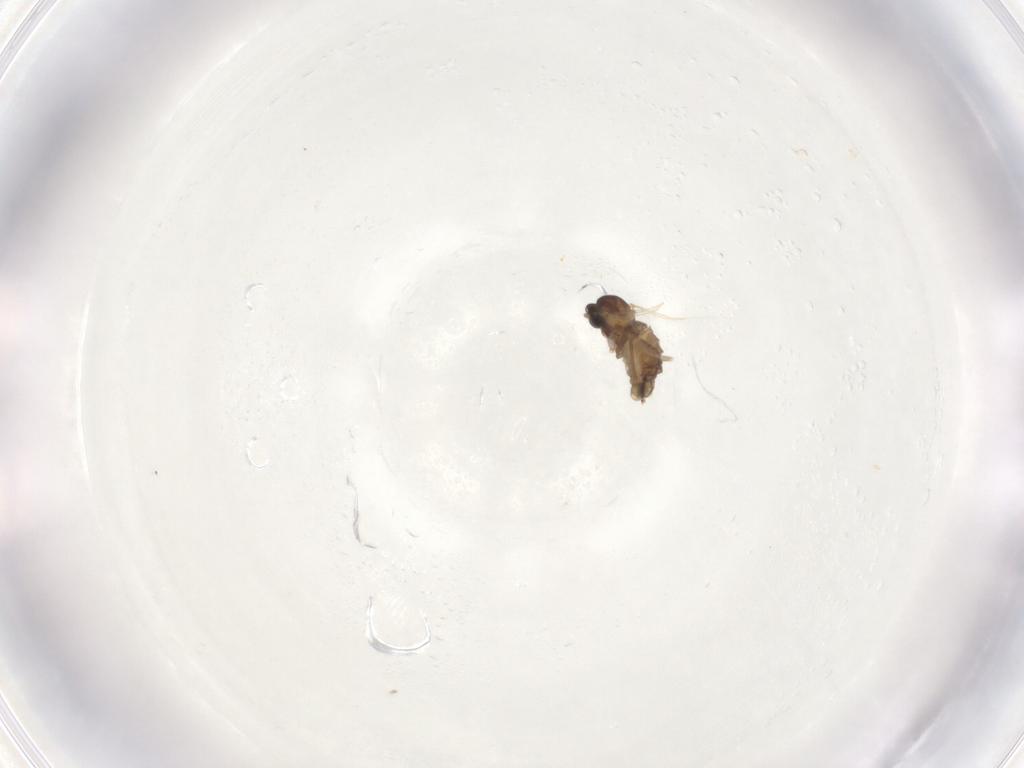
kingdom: Animalia
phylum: Arthropoda
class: Insecta
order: Diptera
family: Cecidomyiidae
